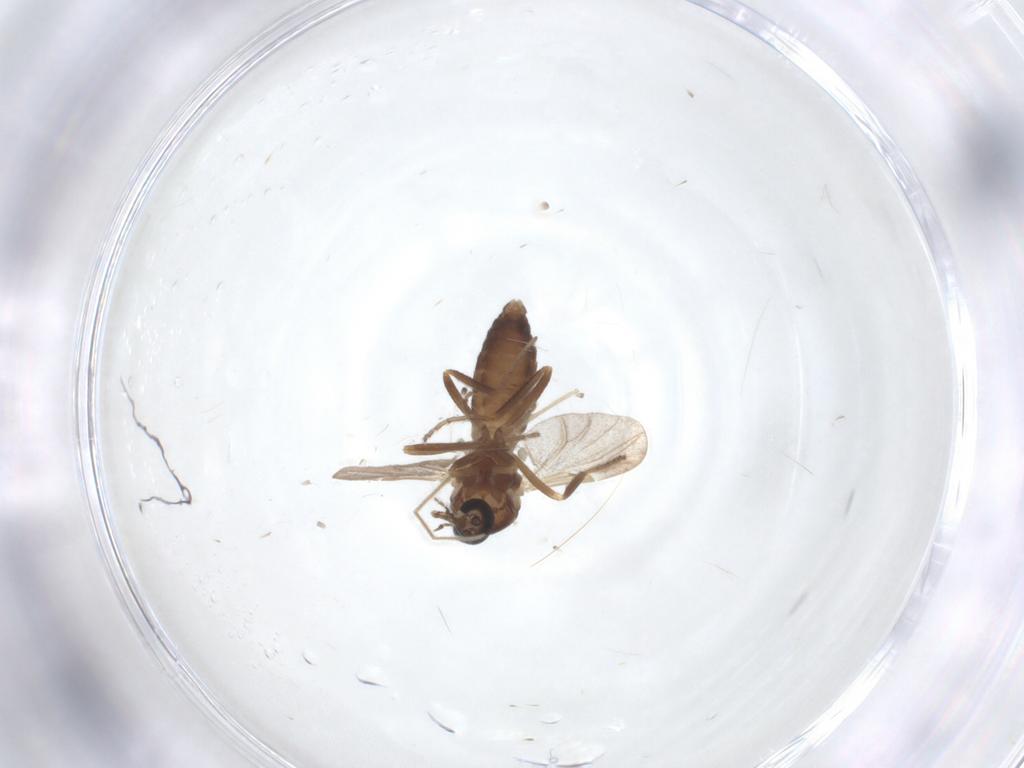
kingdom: Animalia
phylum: Arthropoda
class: Insecta
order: Diptera
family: Ceratopogonidae
